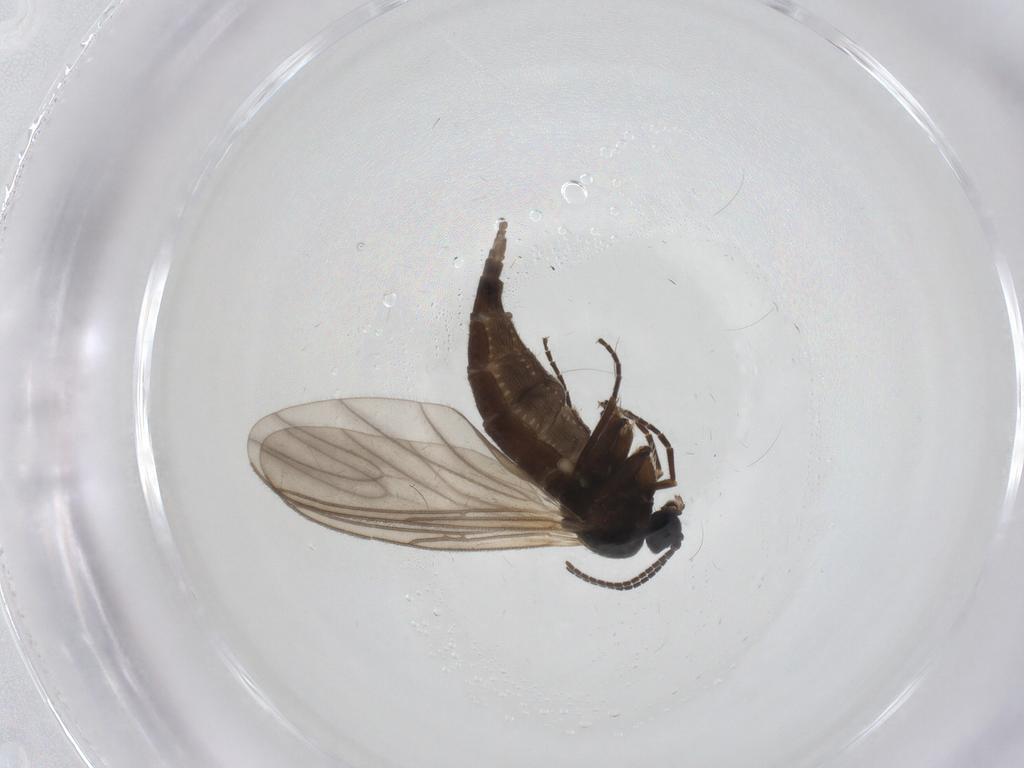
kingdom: Animalia
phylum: Arthropoda
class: Insecta
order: Diptera
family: Sciaridae
